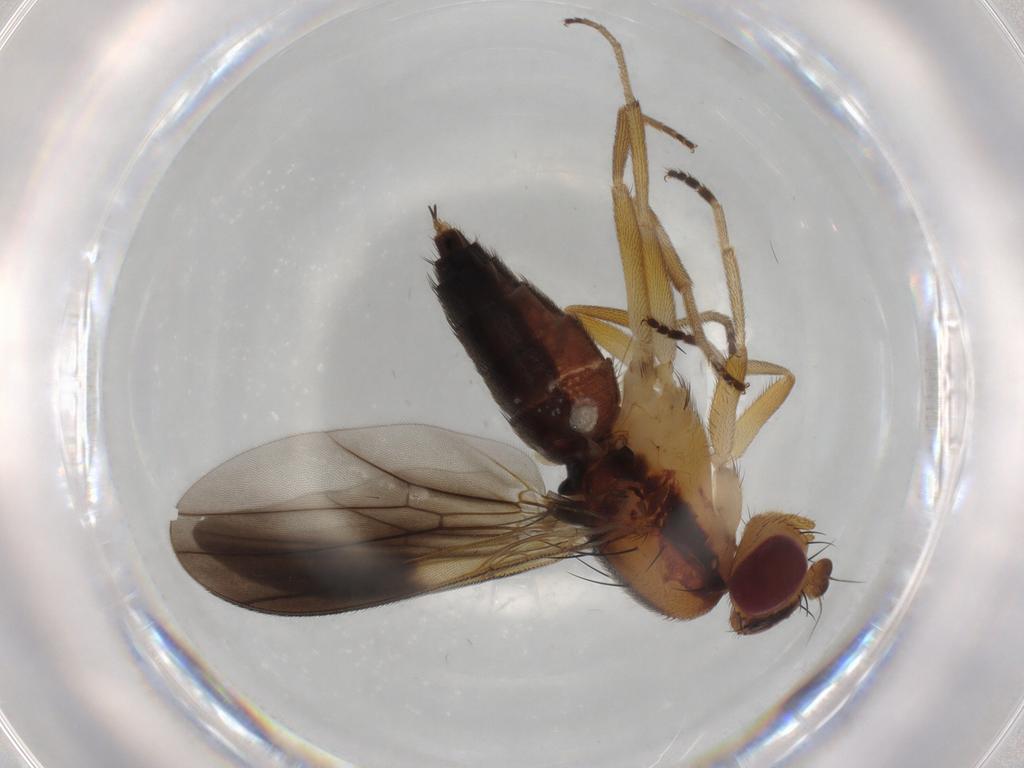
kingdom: Animalia
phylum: Arthropoda
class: Insecta
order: Diptera
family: Clusiidae
